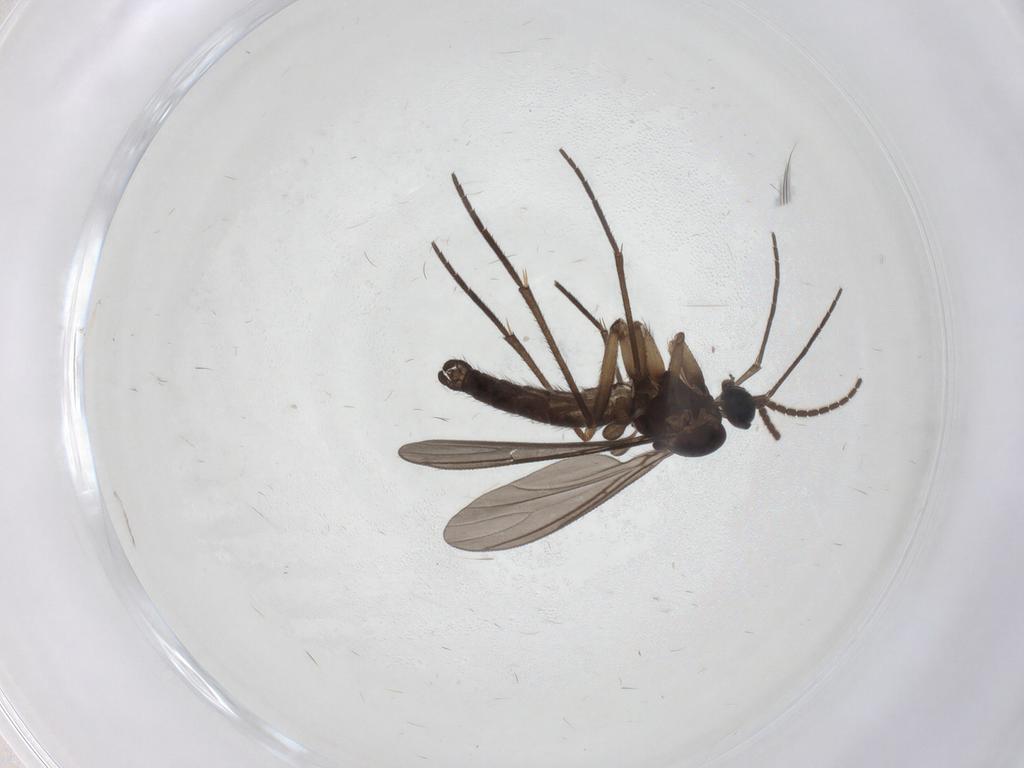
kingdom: Animalia
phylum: Arthropoda
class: Insecta
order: Diptera
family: Sciaridae
